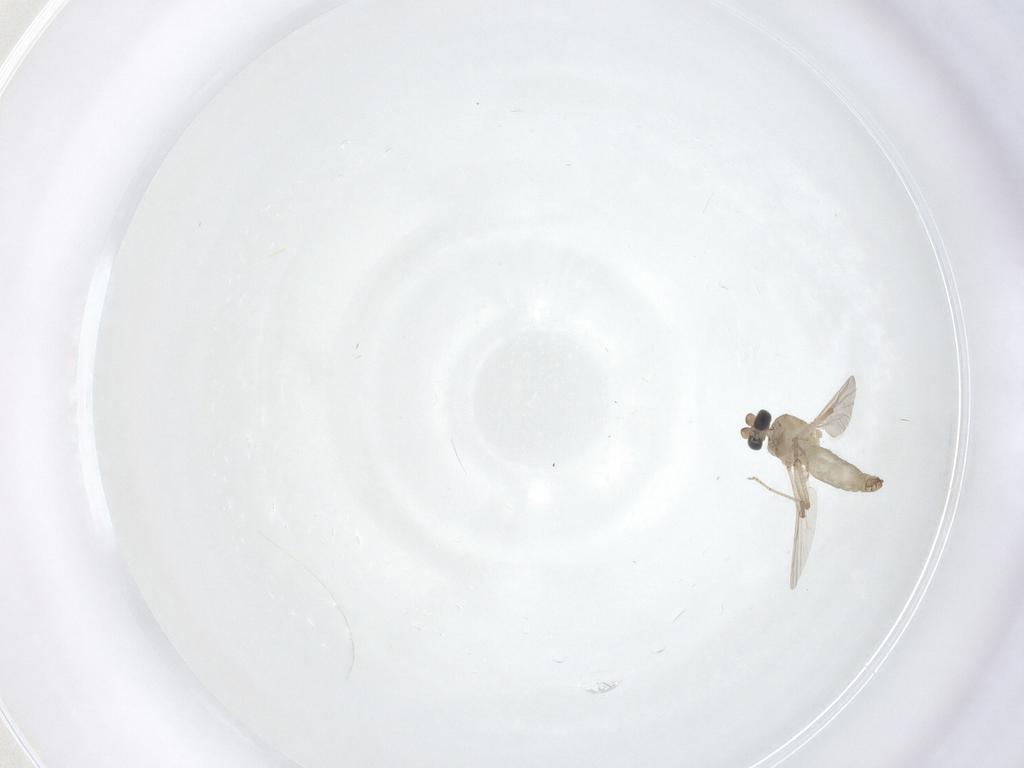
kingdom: Animalia
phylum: Arthropoda
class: Insecta
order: Diptera
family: Ceratopogonidae
